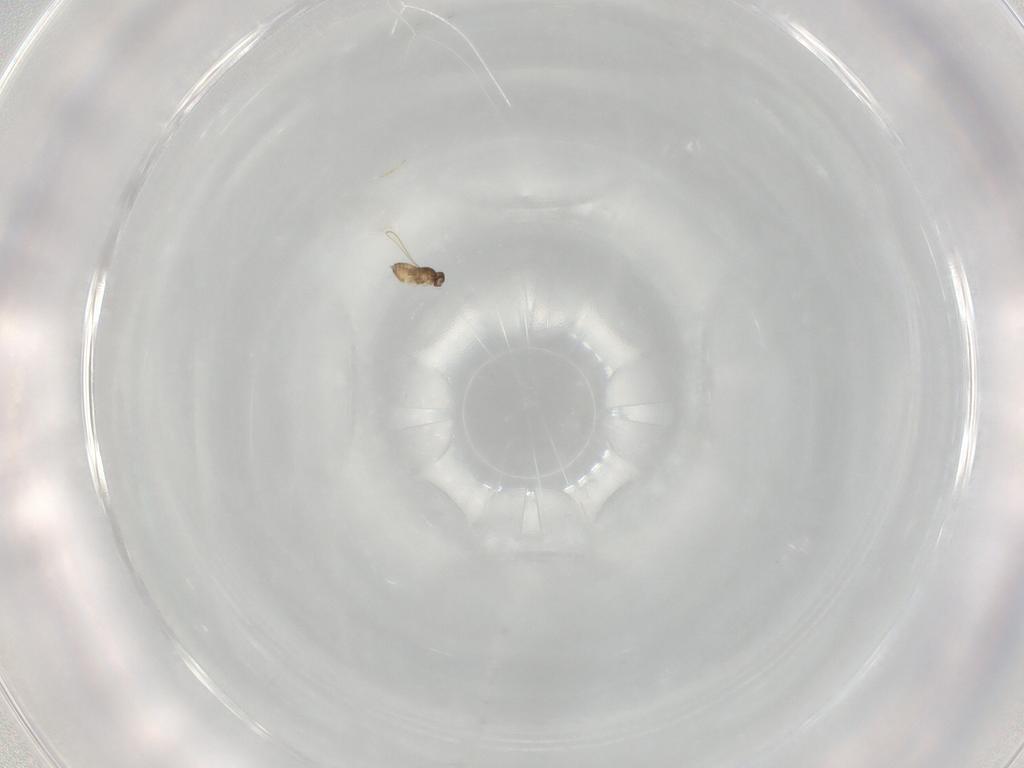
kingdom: Animalia
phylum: Arthropoda
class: Insecta
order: Hymenoptera
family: Mymaridae
